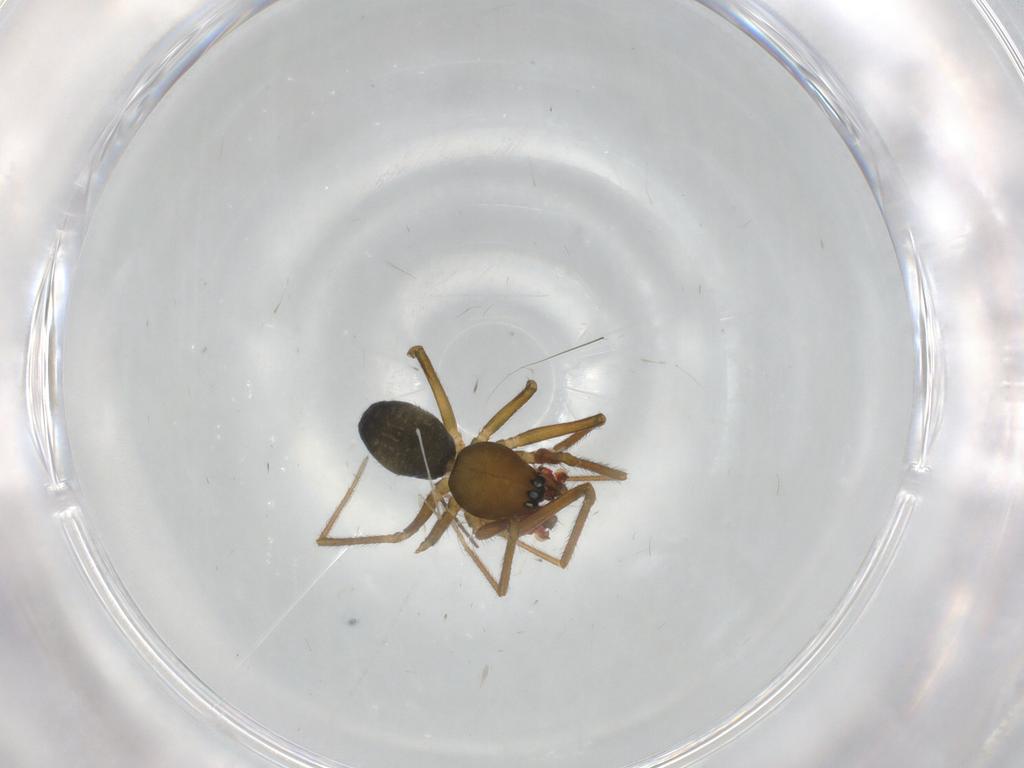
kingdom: Animalia
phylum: Arthropoda
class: Arachnida
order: Araneae
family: Linyphiidae
